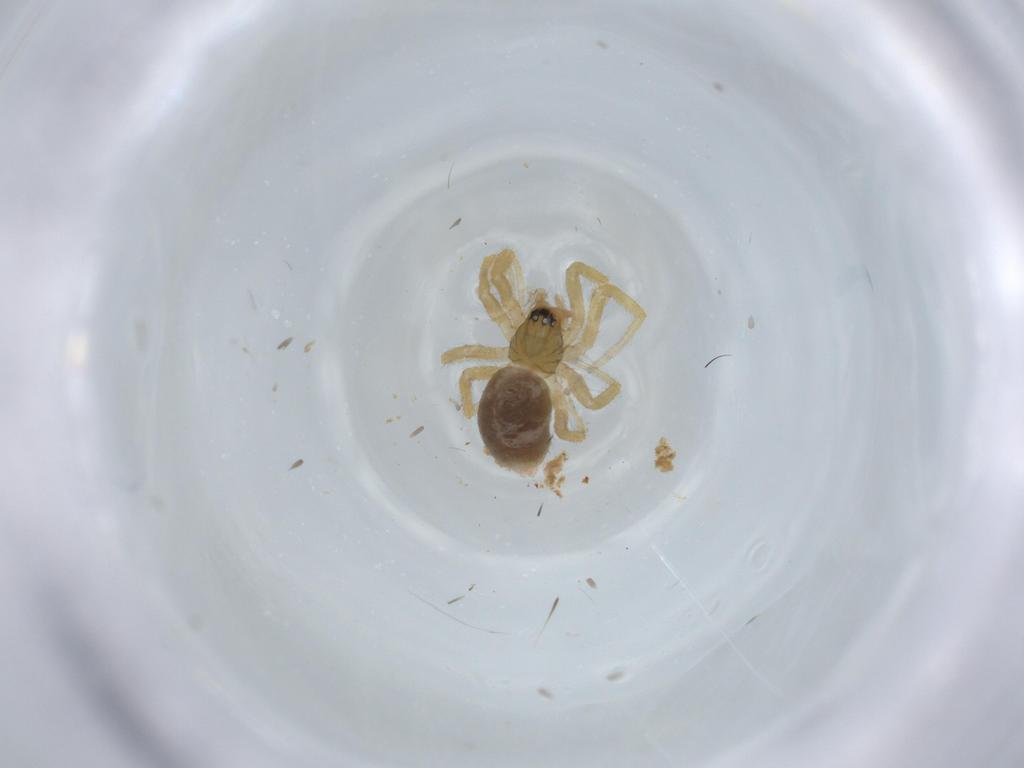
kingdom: Animalia
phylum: Arthropoda
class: Arachnida
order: Araneae
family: Linyphiidae
